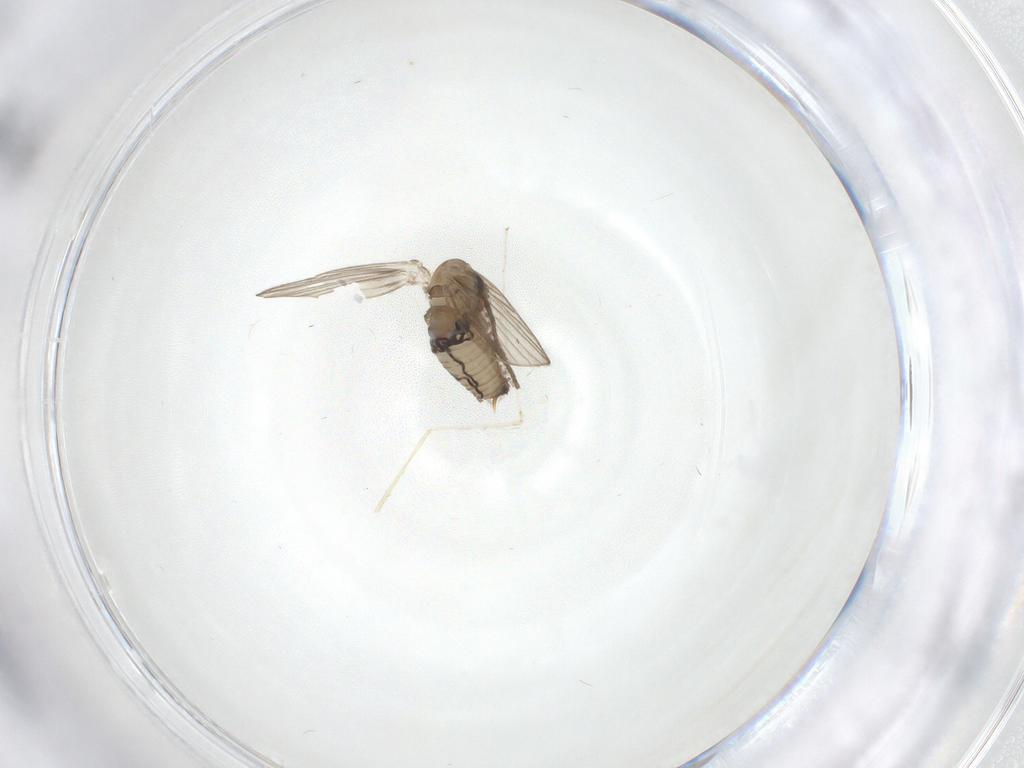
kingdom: Animalia
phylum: Arthropoda
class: Insecta
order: Diptera
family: Psychodidae
